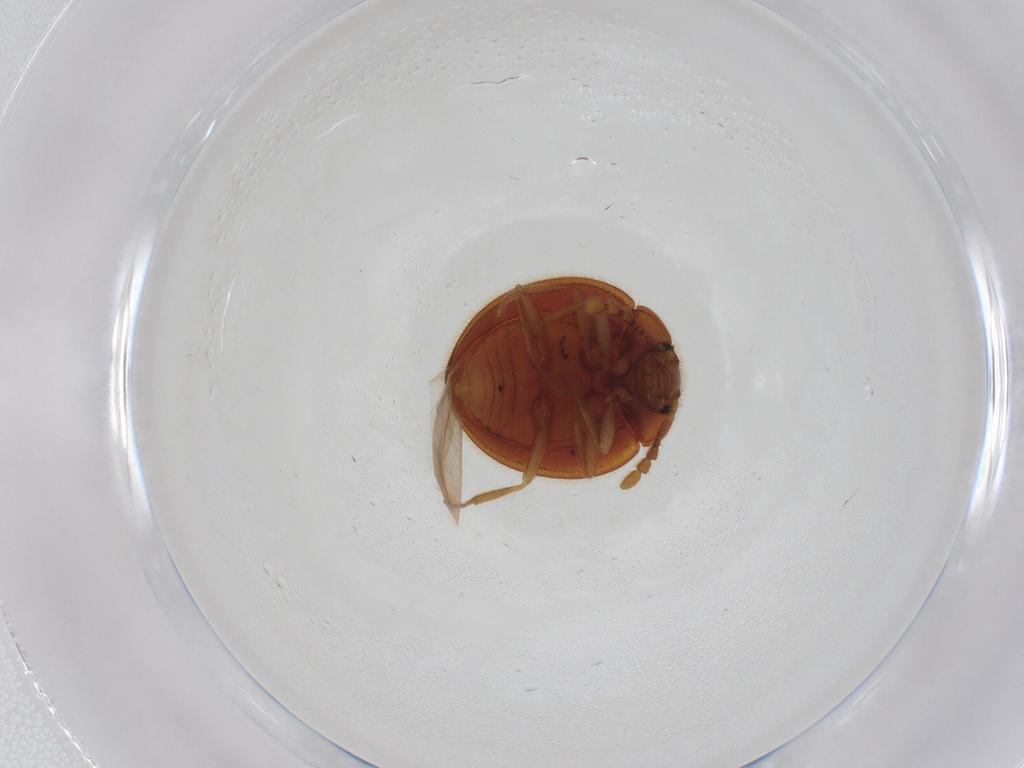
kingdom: Animalia
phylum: Arthropoda
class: Insecta
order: Coleoptera
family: Anamorphidae
